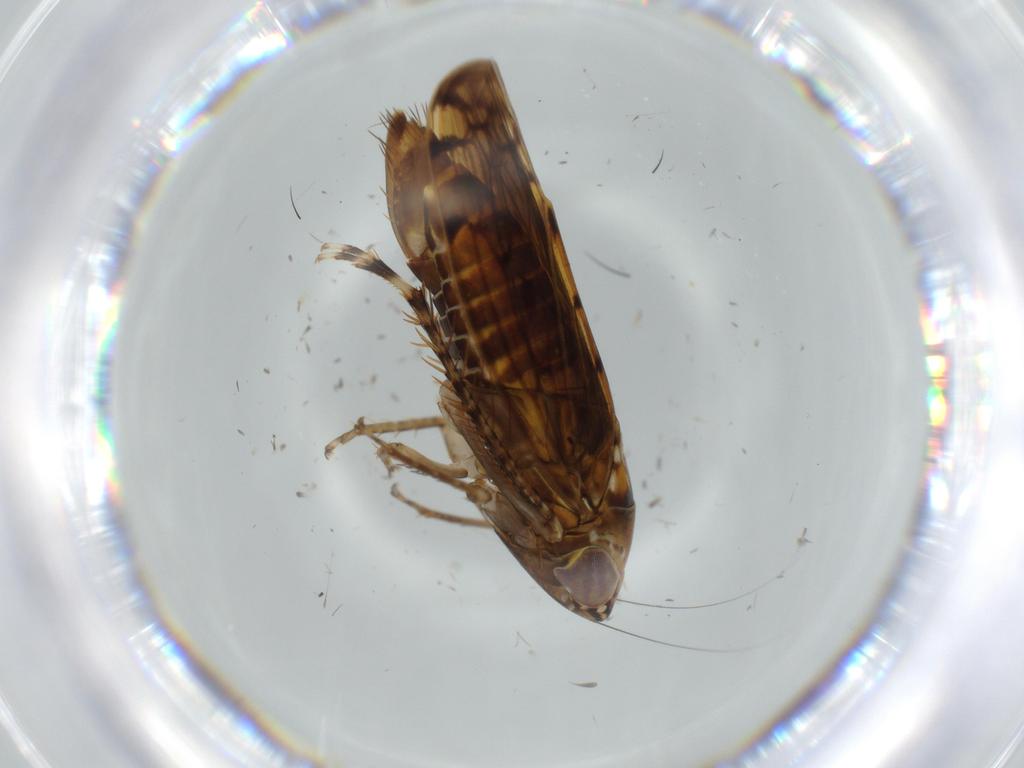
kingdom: Animalia
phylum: Arthropoda
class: Insecta
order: Hemiptera
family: Cicadellidae
